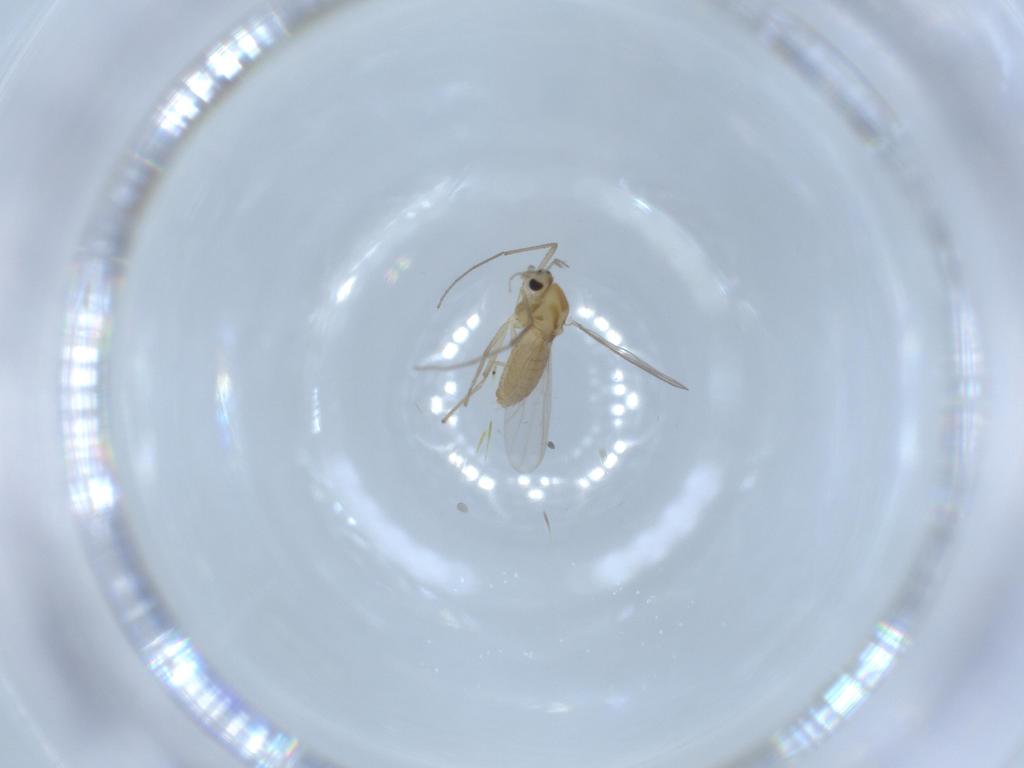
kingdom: Animalia
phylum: Arthropoda
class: Insecta
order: Diptera
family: Chironomidae
